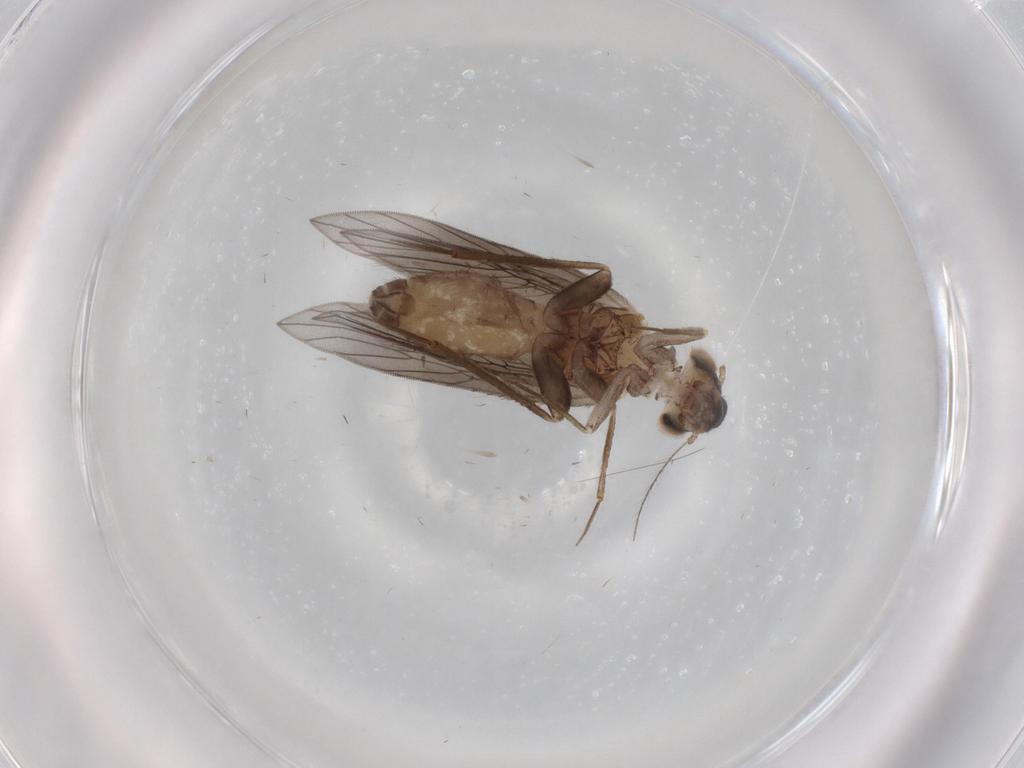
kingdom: Animalia
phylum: Arthropoda
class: Insecta
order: Psocodea
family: Lepidopsocidae
